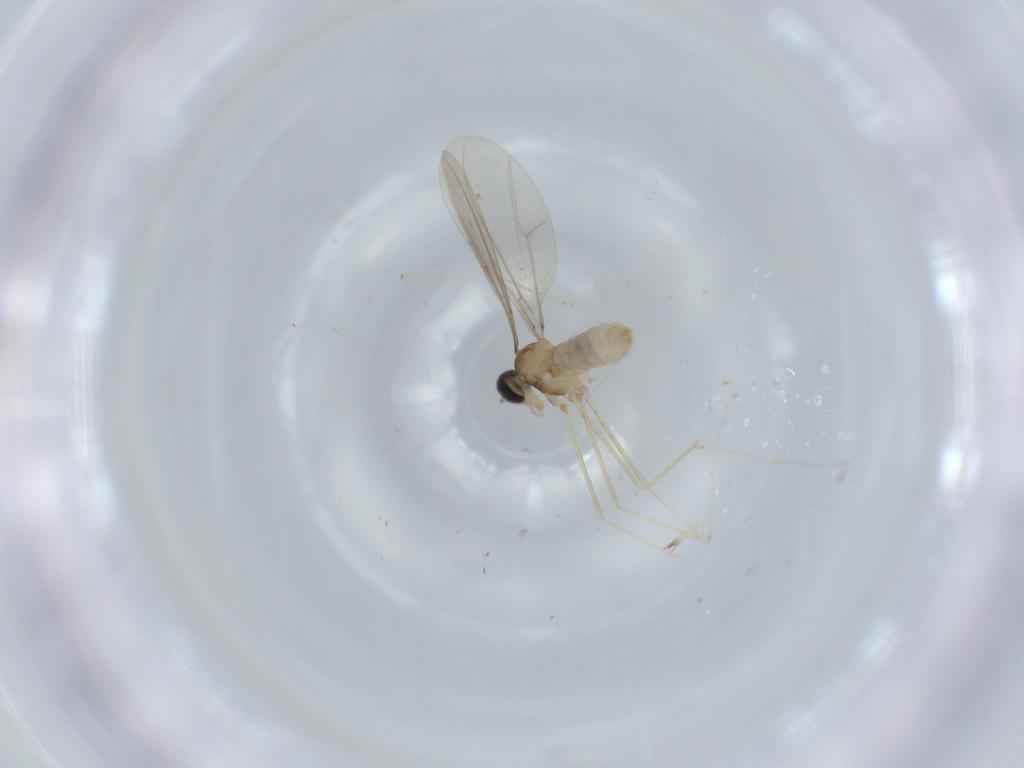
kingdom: Animalia
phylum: Arthropoda
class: Insecta
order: Diptera
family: Cecidomyiidae
